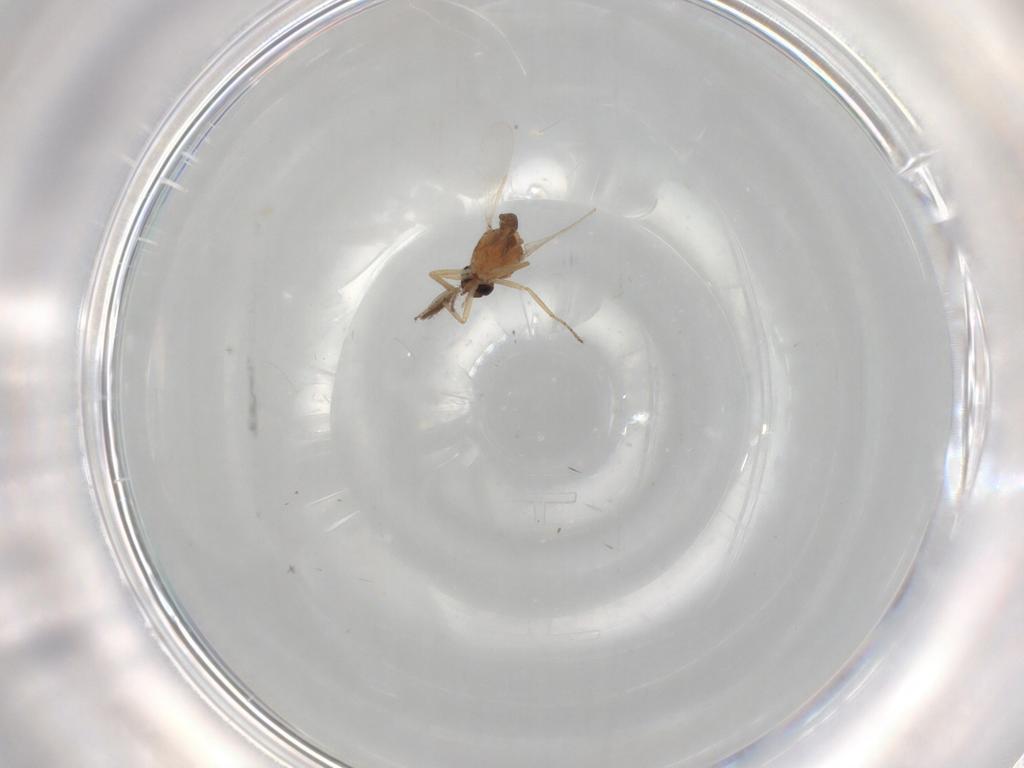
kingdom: Animalia
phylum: Arthropoda
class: Insecta
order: Diptera
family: Ceratopogonidae
